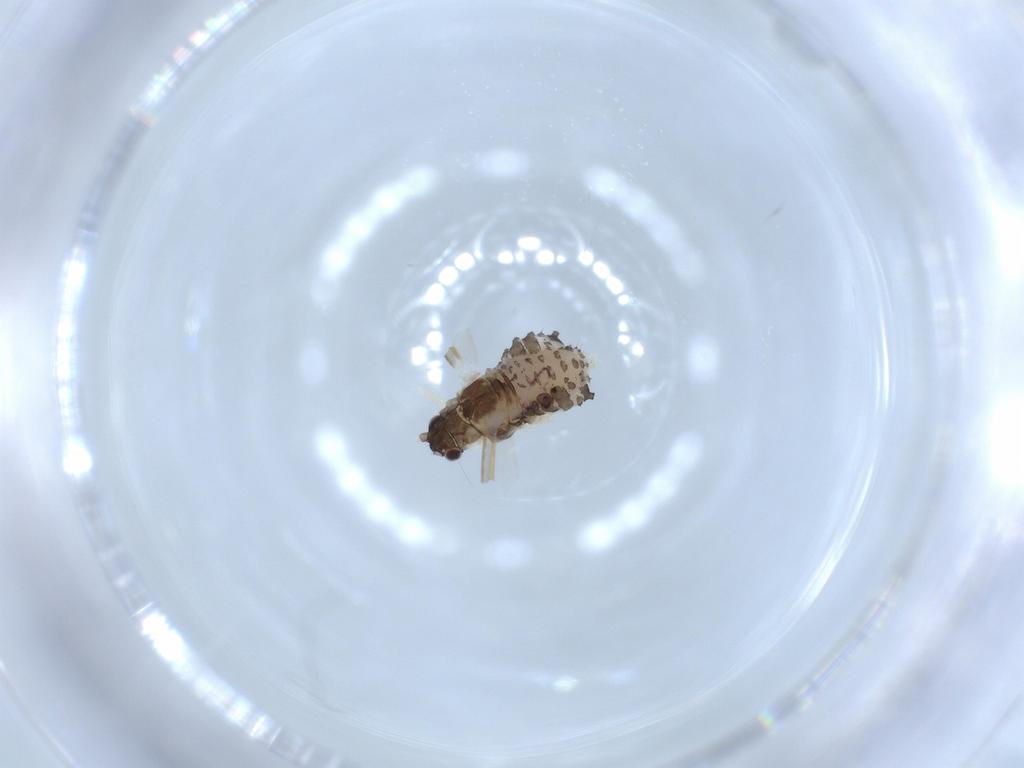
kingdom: Animalia
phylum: Arthropoda
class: Insecta
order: Hemiptera
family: Aphididae
